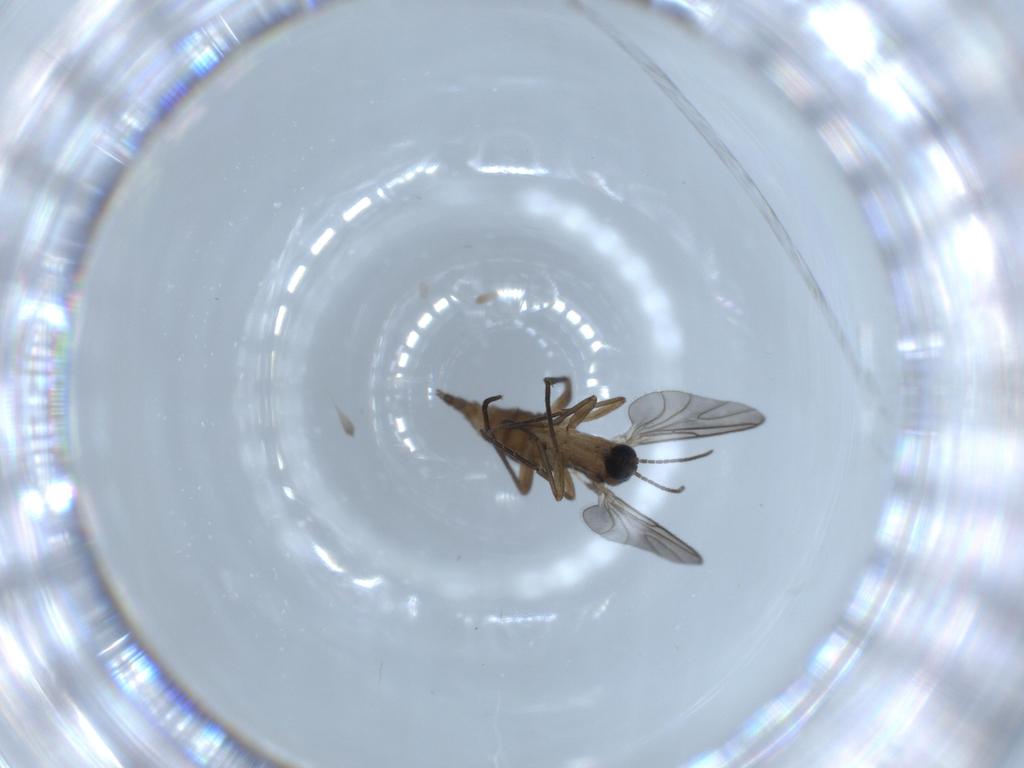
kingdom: Animalia
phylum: Arthropoda
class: Insecta
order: Diptera
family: Sciaridae
